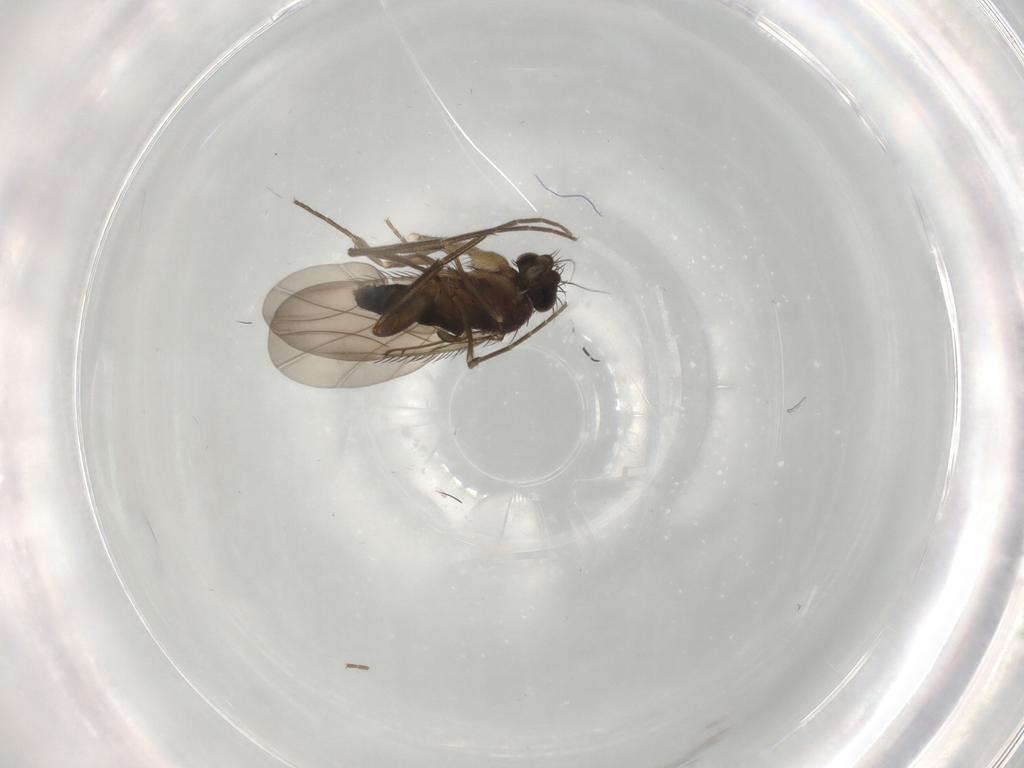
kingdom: Animalia
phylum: Arthropoda
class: Insecta
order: Diptera
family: Phoridae
